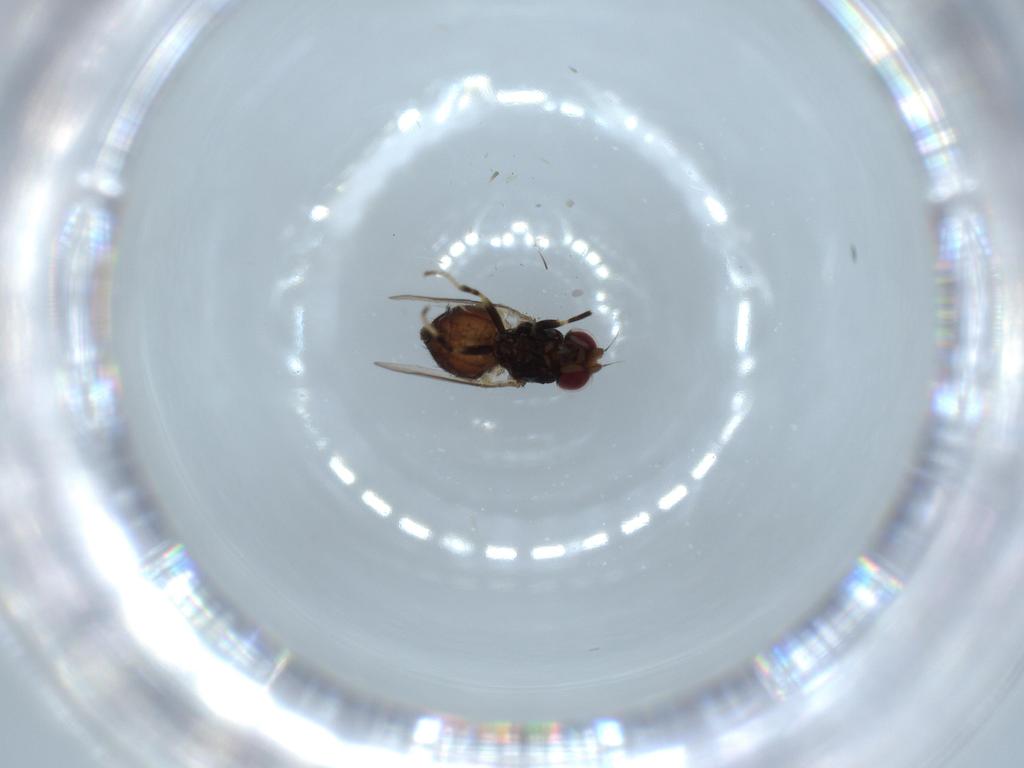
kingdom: Animalia
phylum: Arthropoda
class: Insecta
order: Diptera
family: Chloropidae
